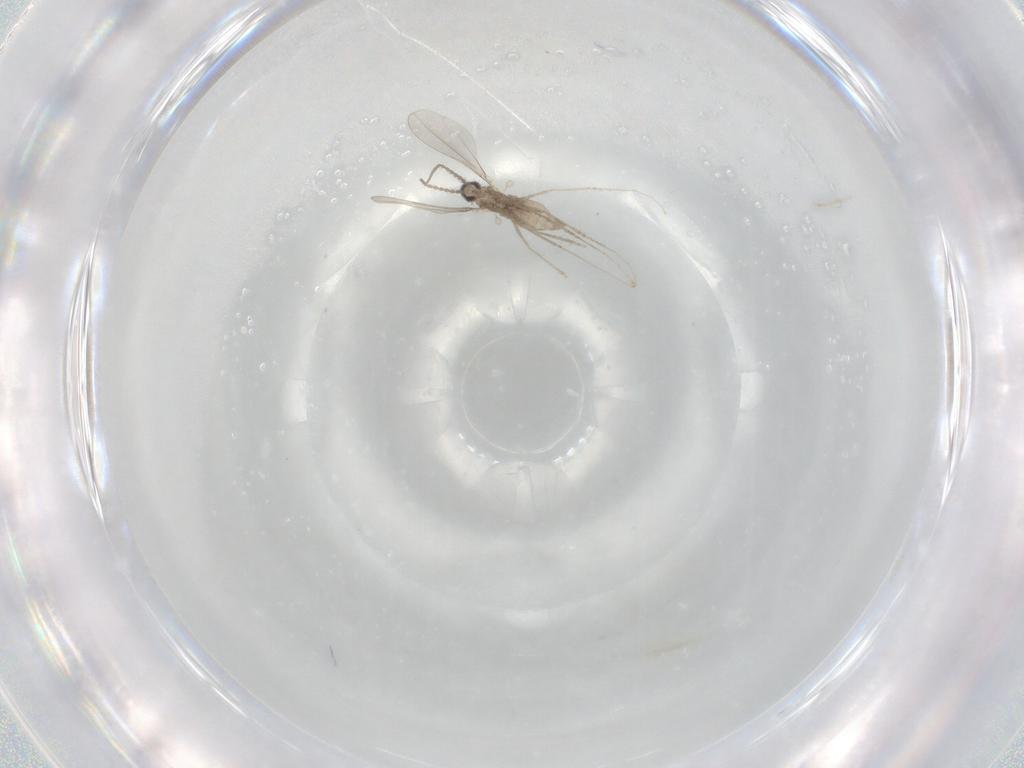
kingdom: Animalia
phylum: Arthropoda
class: Insecta
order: Diptera
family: Cecidomyiidae
